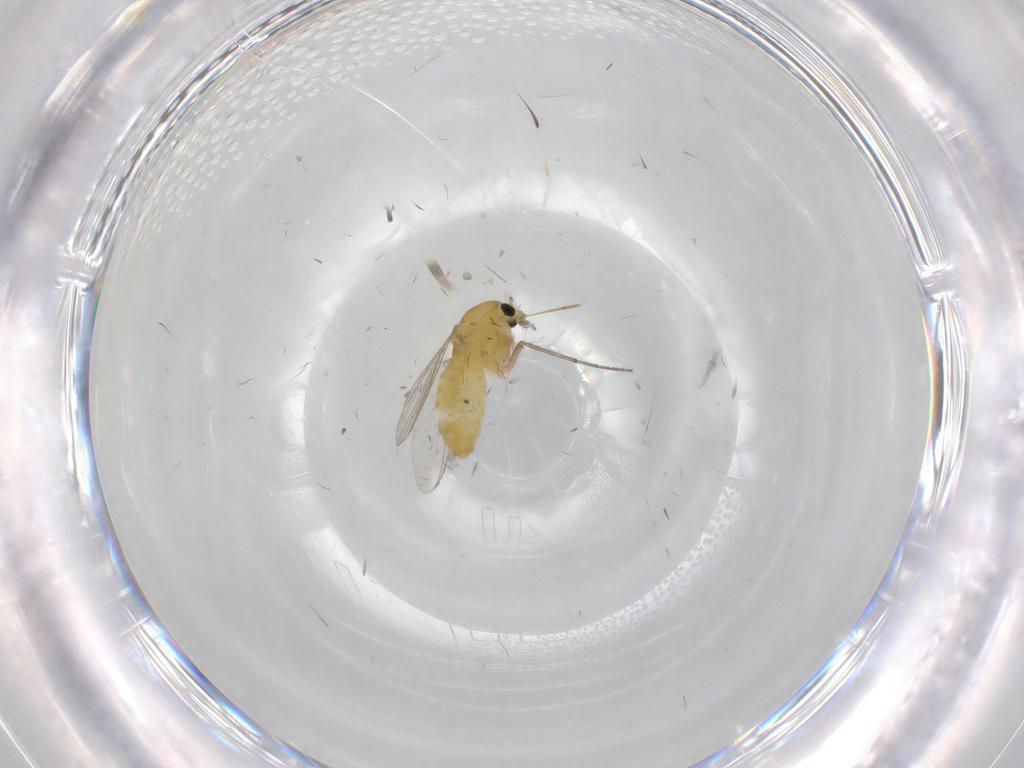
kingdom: Animalia
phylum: Arthropoda
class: Insecta
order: Diptera
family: Chironomidae
